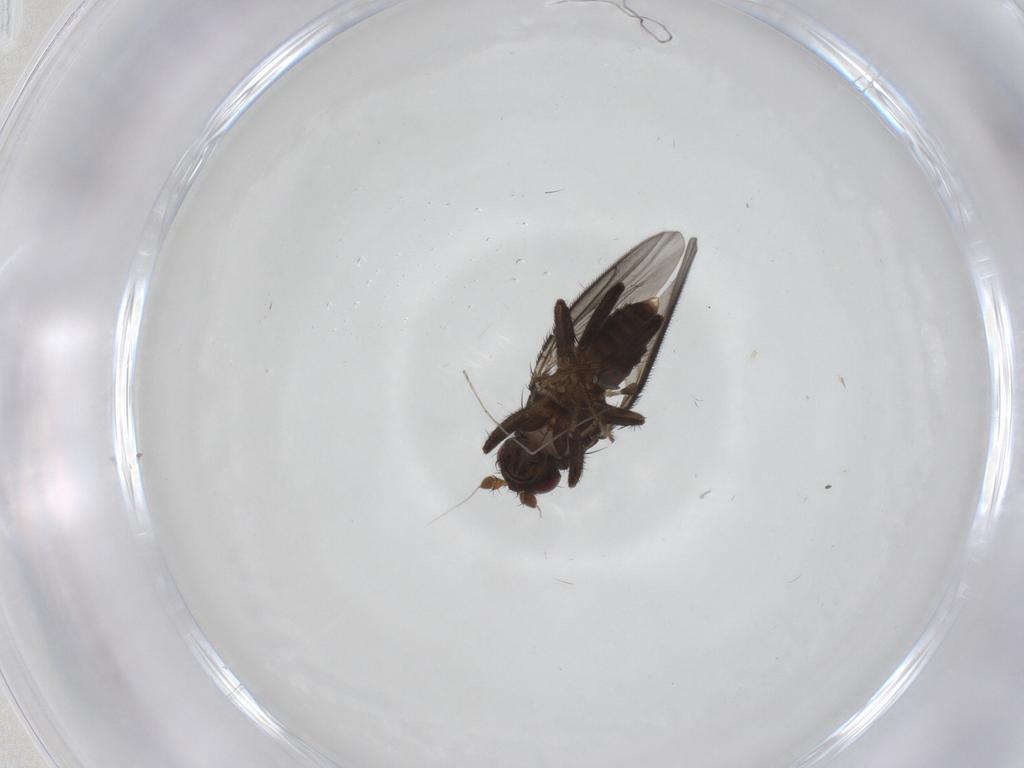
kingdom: Animalia
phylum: Arthropoda
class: Insecta
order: Diptera
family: Sphaeroceridae
